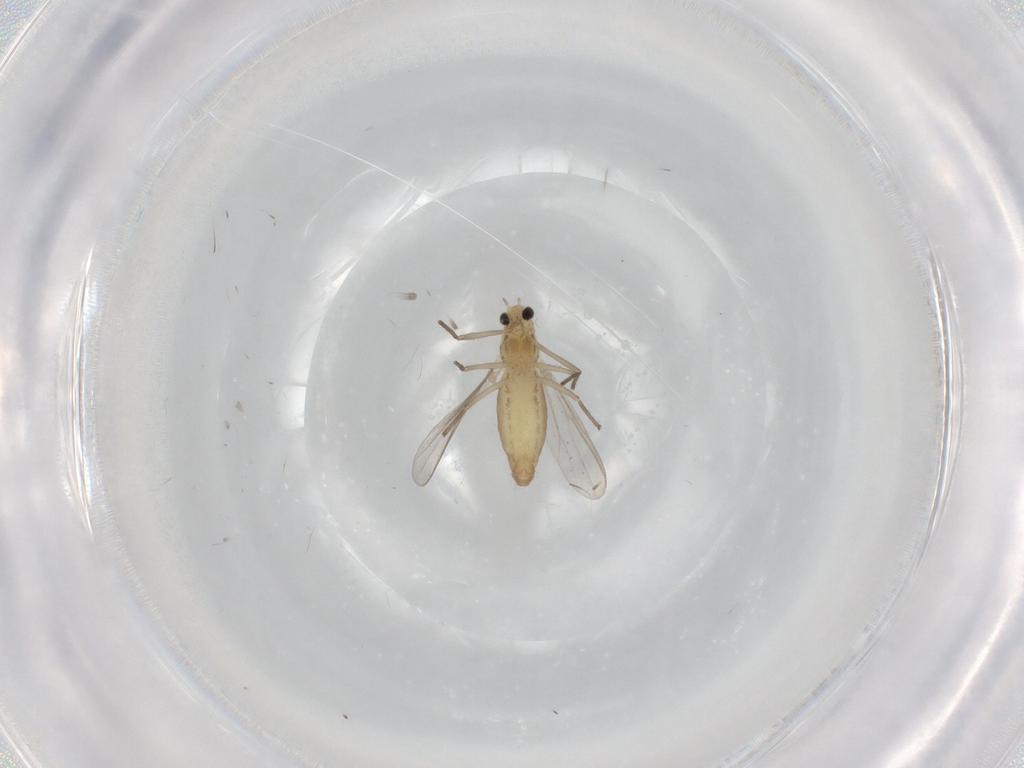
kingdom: Animalia
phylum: Arthropoda
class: Insecta
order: Diptera
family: Chironomidae
